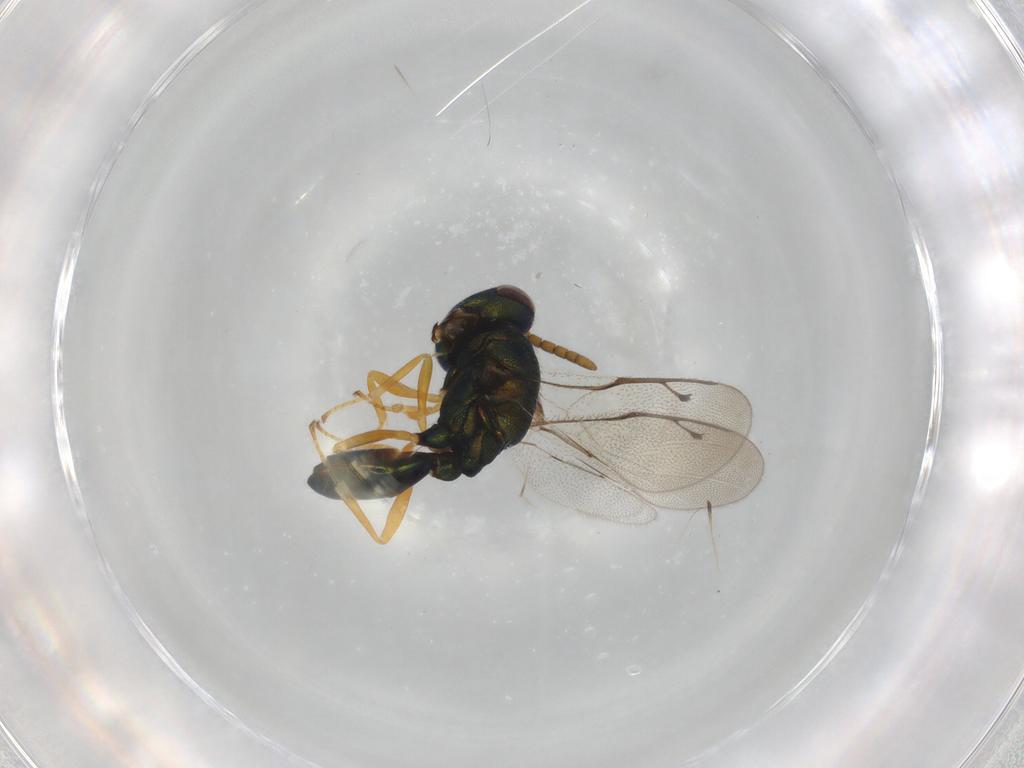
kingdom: Animalia
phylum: Arthropoda
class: Insecta
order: Hymenoptera
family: Pteromalidae
